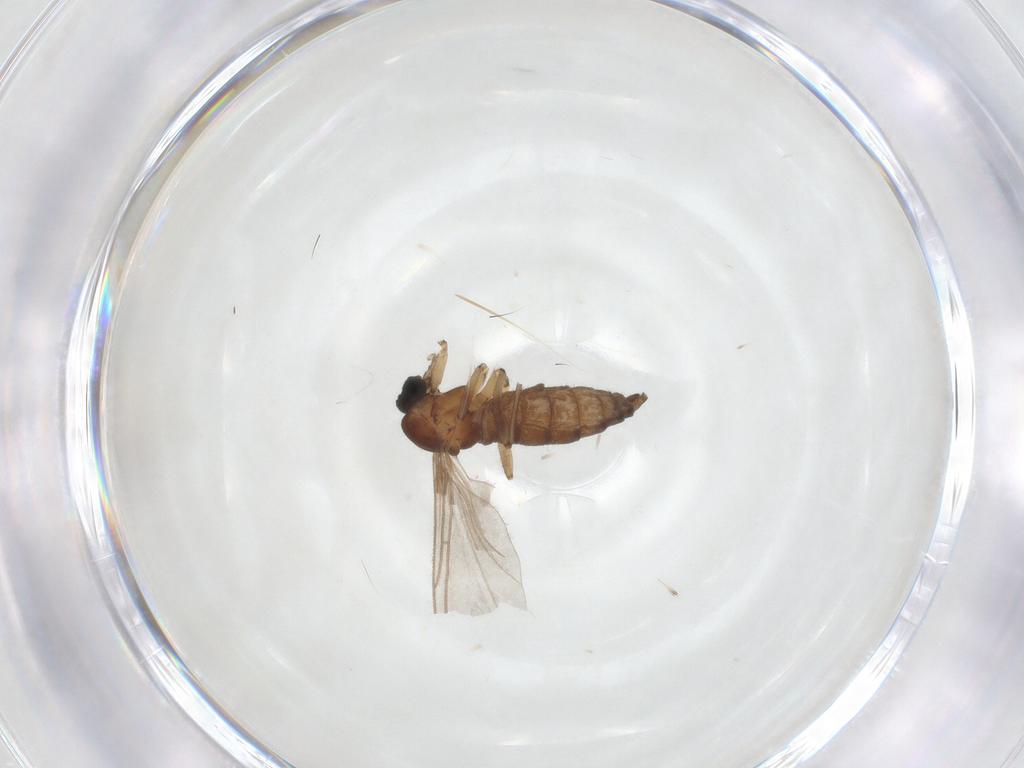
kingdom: Animalia
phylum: Arthropoda
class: Insecta
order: Diptera
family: Sciaridae
